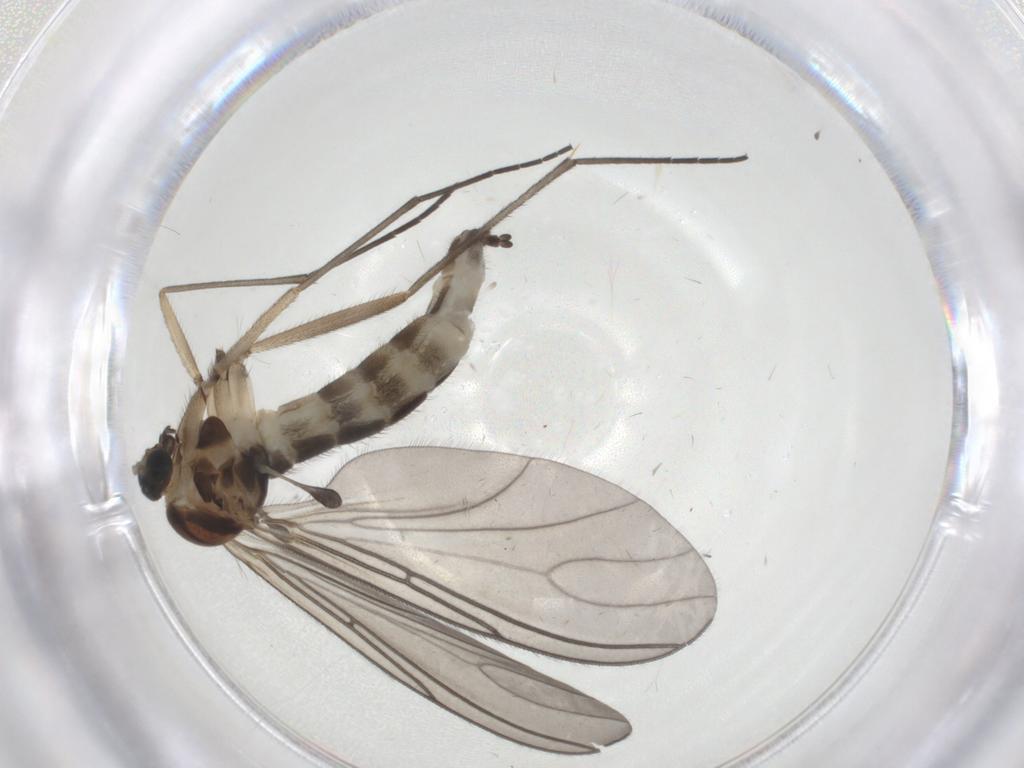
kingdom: Animalia
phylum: Arthropoda
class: Insecta
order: Diptera
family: Sciaridae
